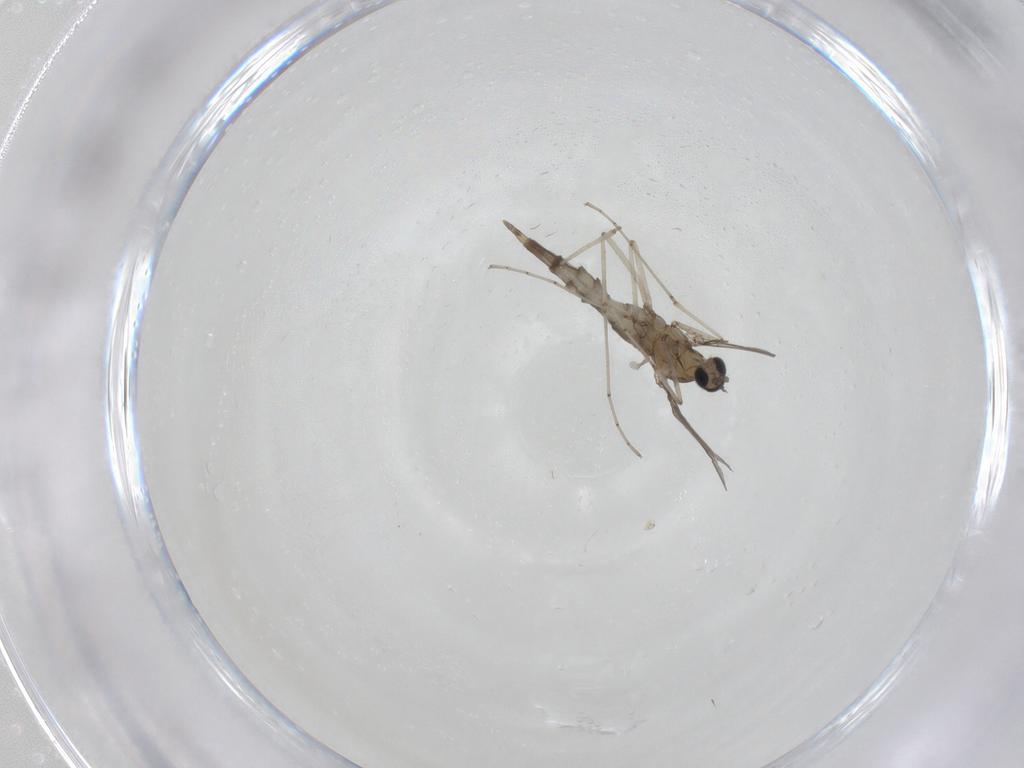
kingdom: Animalia
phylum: Arthropoda
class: Insecta
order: Diptera
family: Cecidomyiidae
